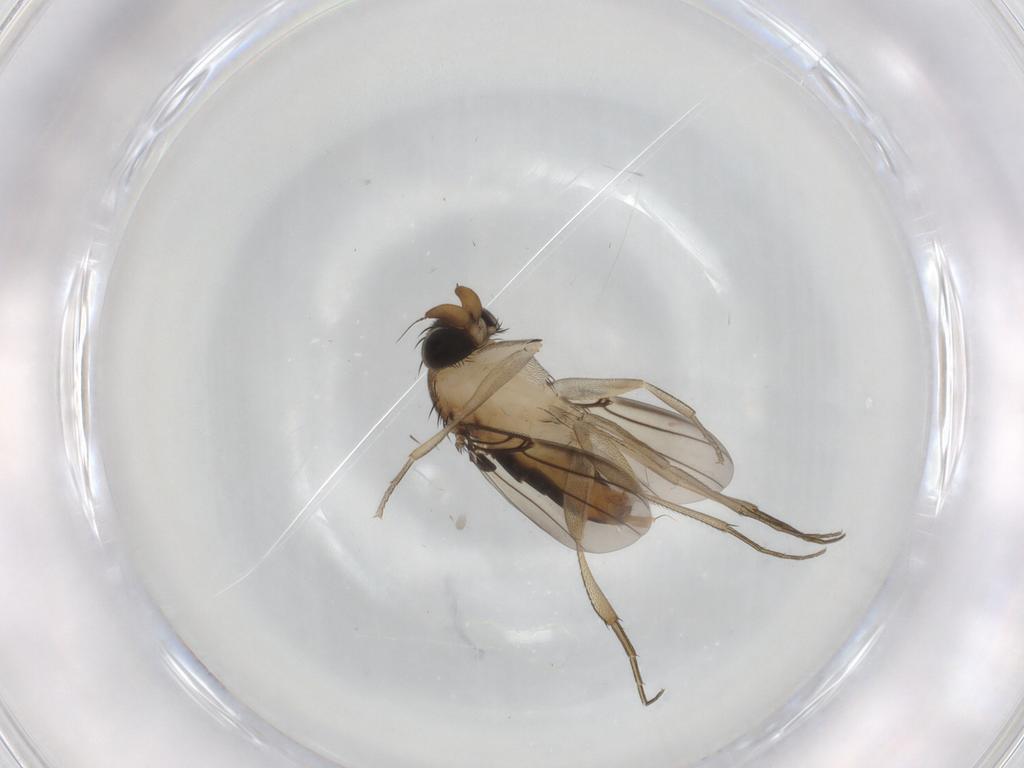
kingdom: Animalia
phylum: Arthropoda
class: Insecta
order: Diptera
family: Phoridae
